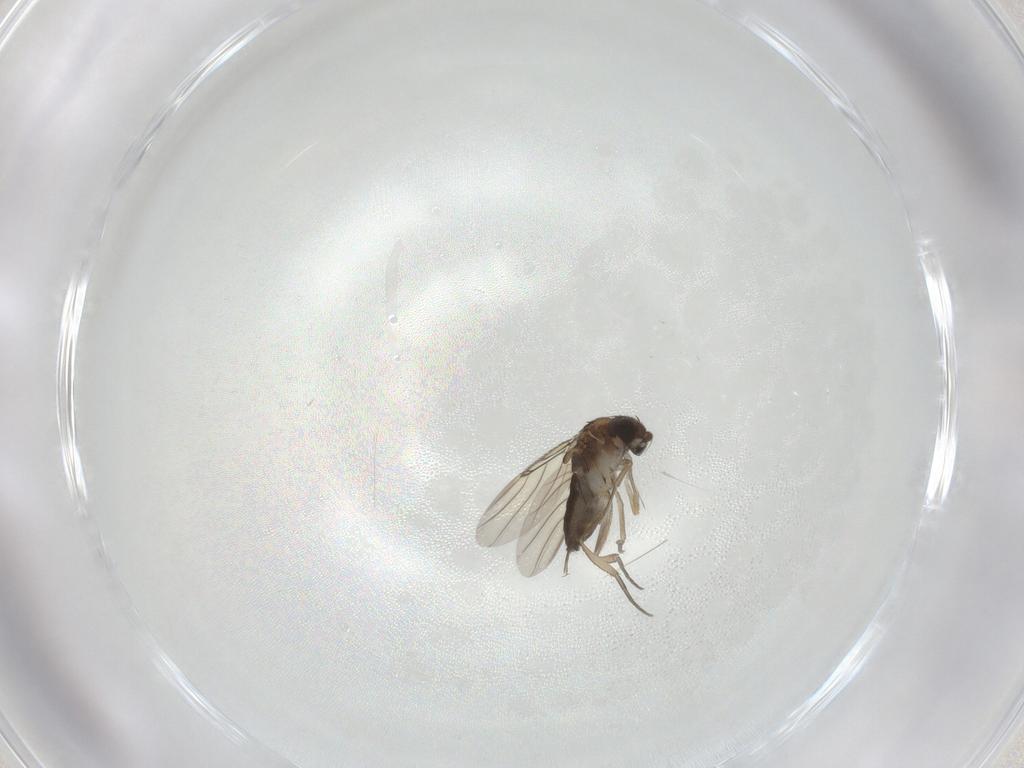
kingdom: Animalia
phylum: Arthropoda
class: Insecta
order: Diptera
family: Phoridae
